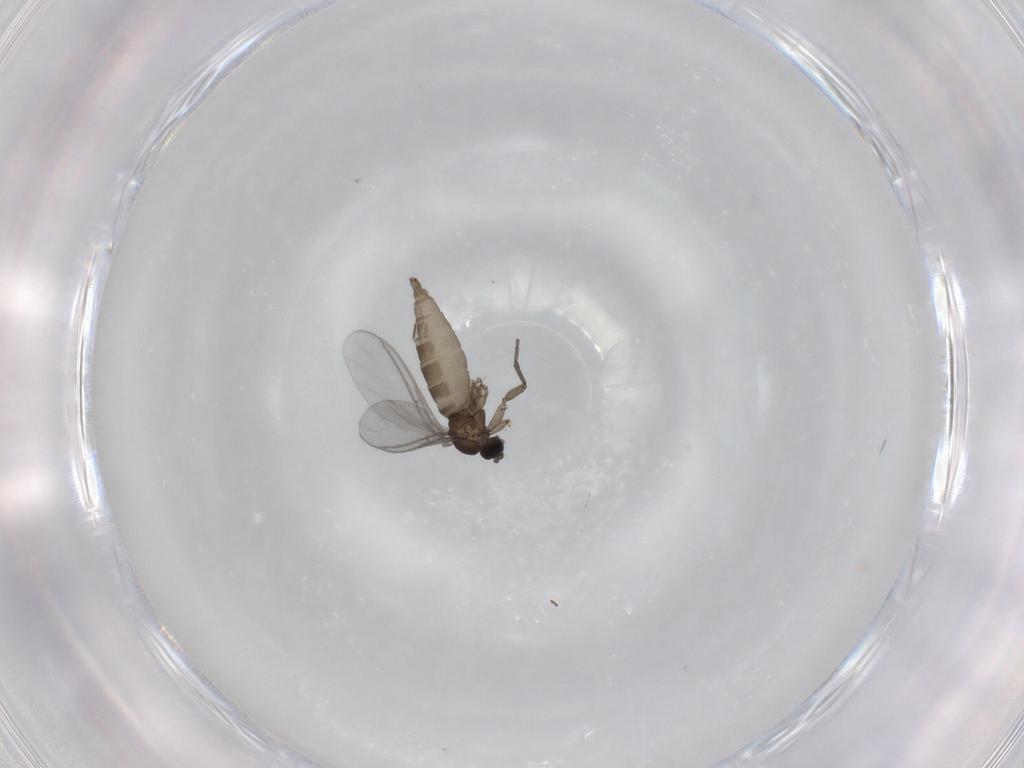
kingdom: Animalia
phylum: Arthropoda
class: Insecta
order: Diptera
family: Sciaridae
